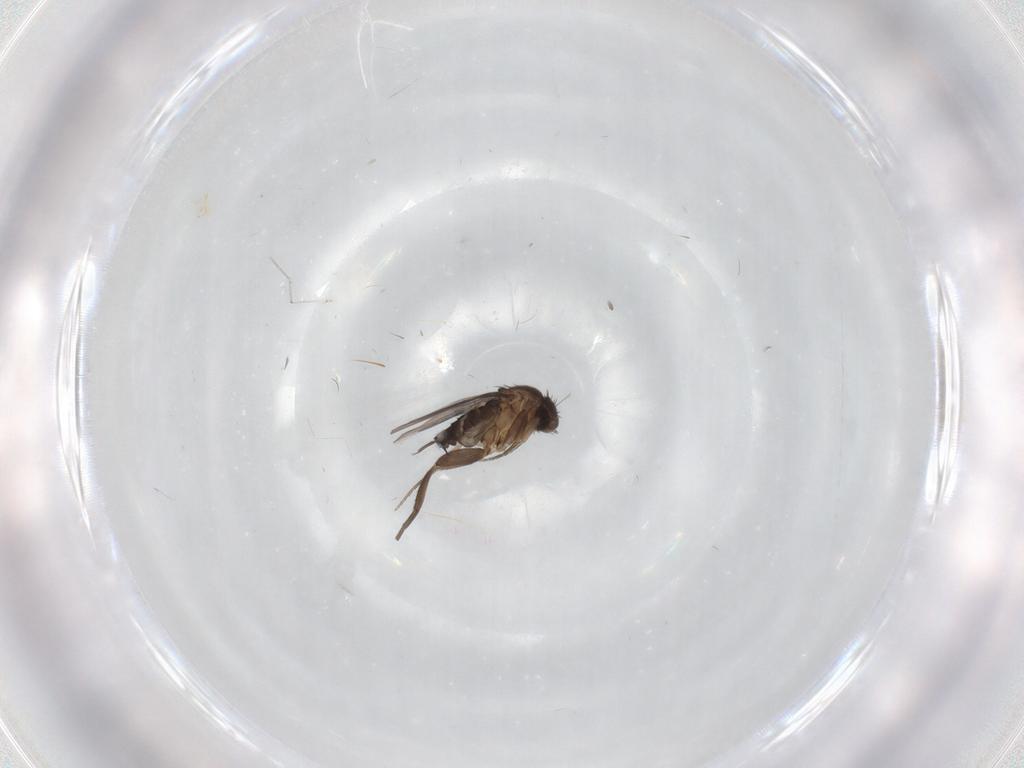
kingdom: Animalia
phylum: Arthropoda
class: Insecta
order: Diptera
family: Phoridae
